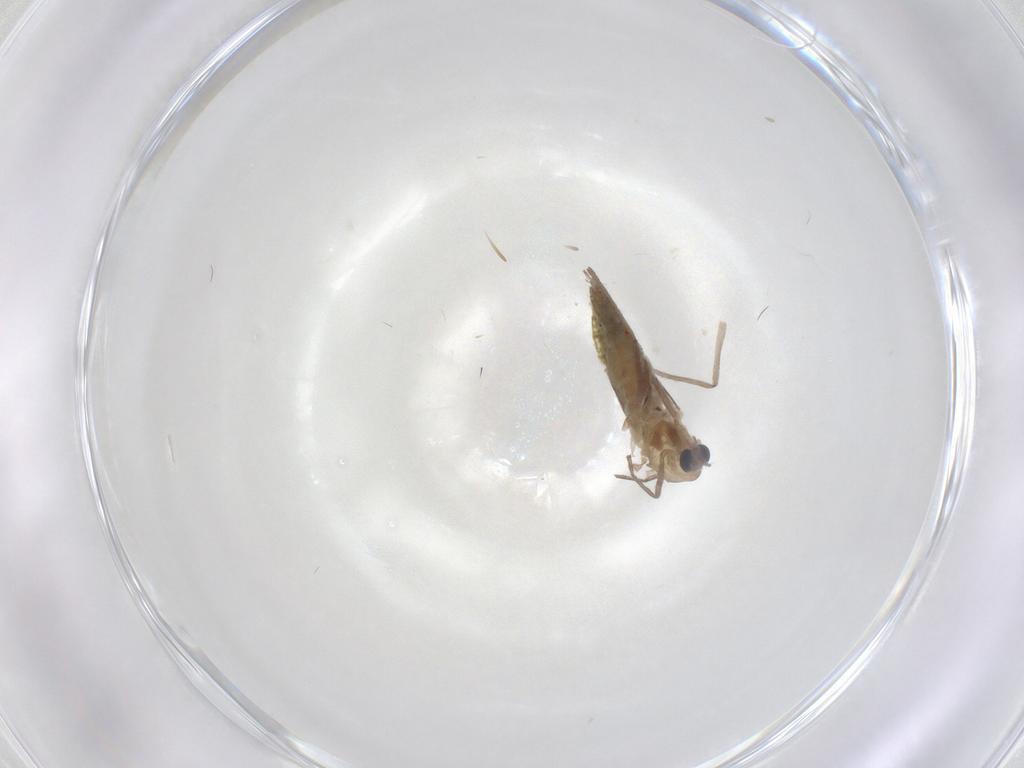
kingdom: Animalia
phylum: Arthropoda
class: Insecta
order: Diptera
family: Chironomidae
